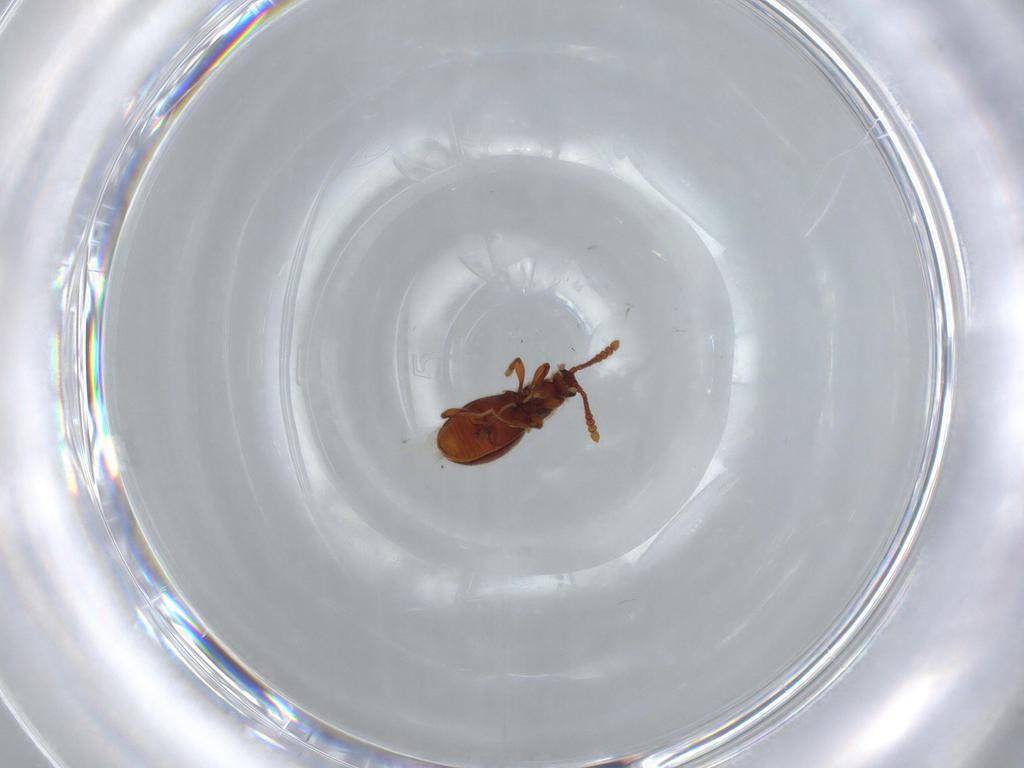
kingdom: Animalia
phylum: Arthropoda
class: Insecta
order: Coleoptera
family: Staphylinidae
